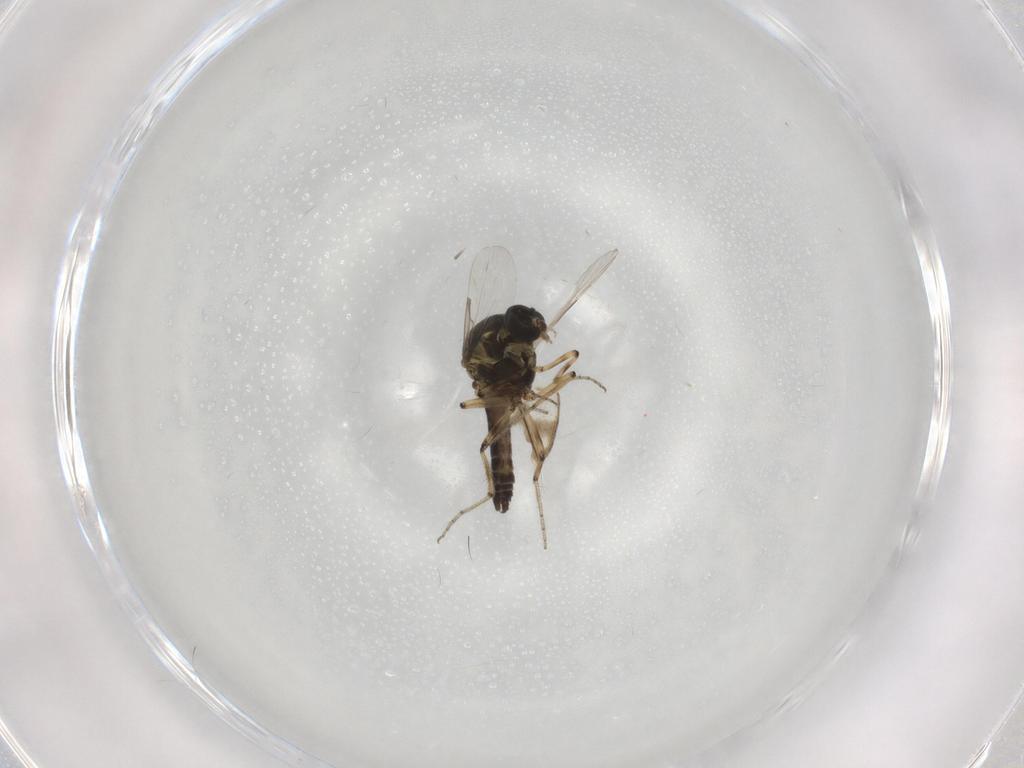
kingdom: Animalia
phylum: Arthropoda
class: Insecta
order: Diptera
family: Ceratopogonidae
